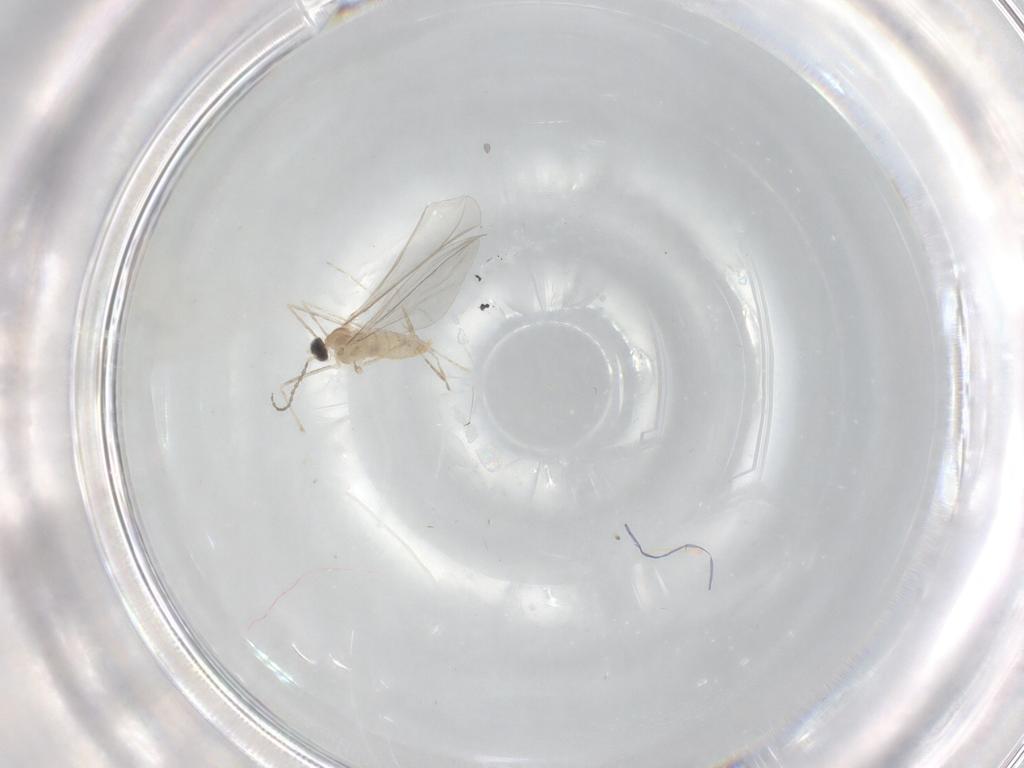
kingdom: Animalia
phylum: Arthropoda
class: Insecta
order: Diptera
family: Cecidomyiidae
